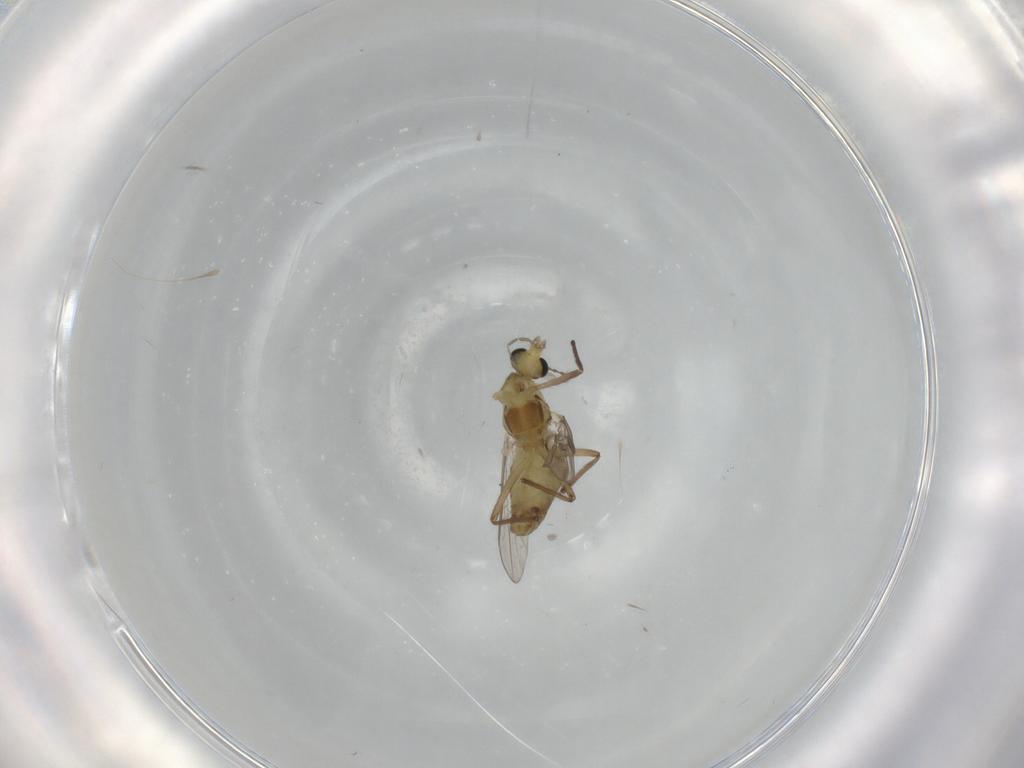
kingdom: Animalia
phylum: Arthropoda
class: Insecta
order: Diptera
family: Chironomidae
